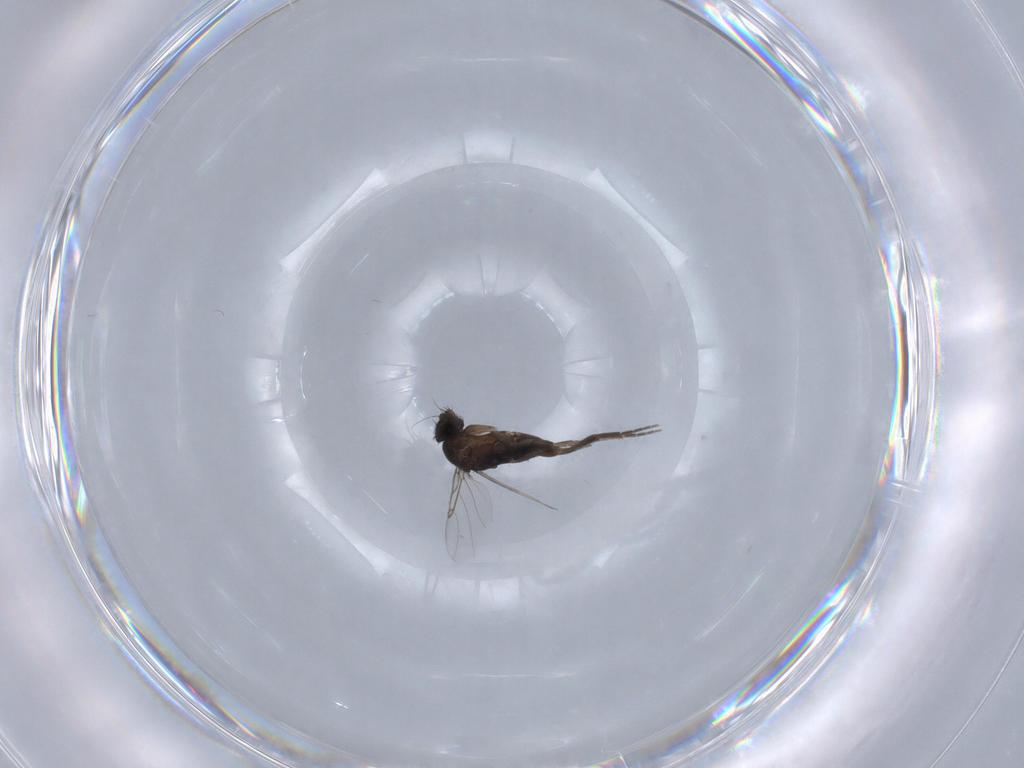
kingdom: Animalia
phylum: Arthropoda
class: Insecta
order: Diptera
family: Phoridae
